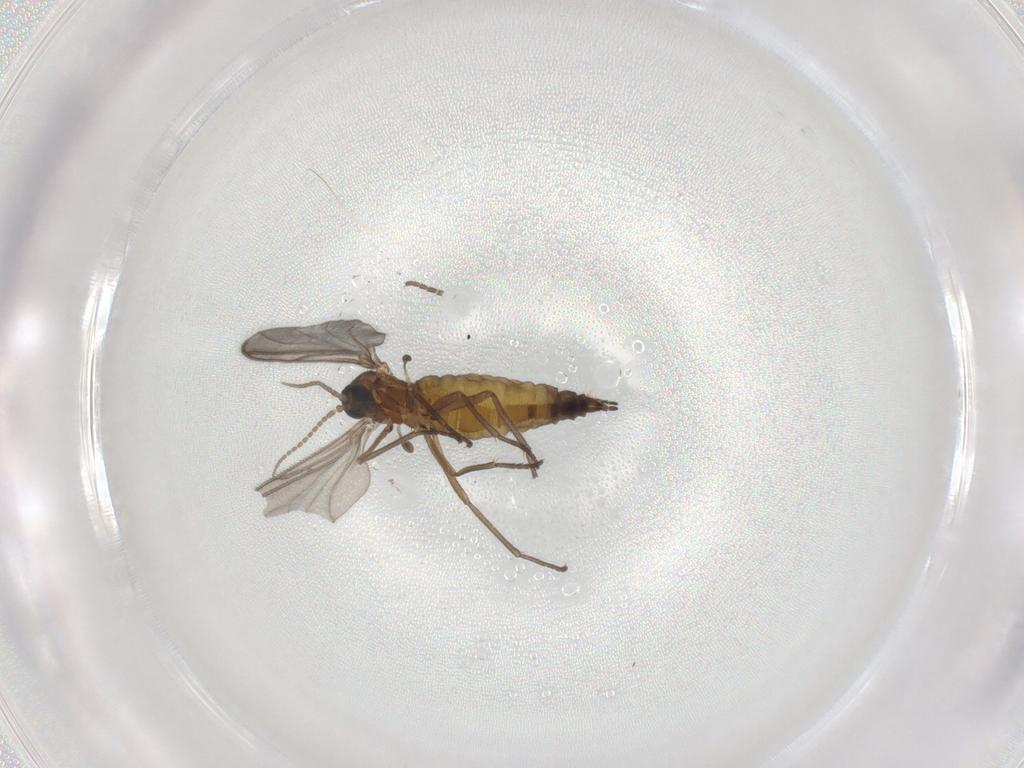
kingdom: Animalia
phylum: Arthropoda
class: Insecta
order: Diptera
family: Sciaridae
